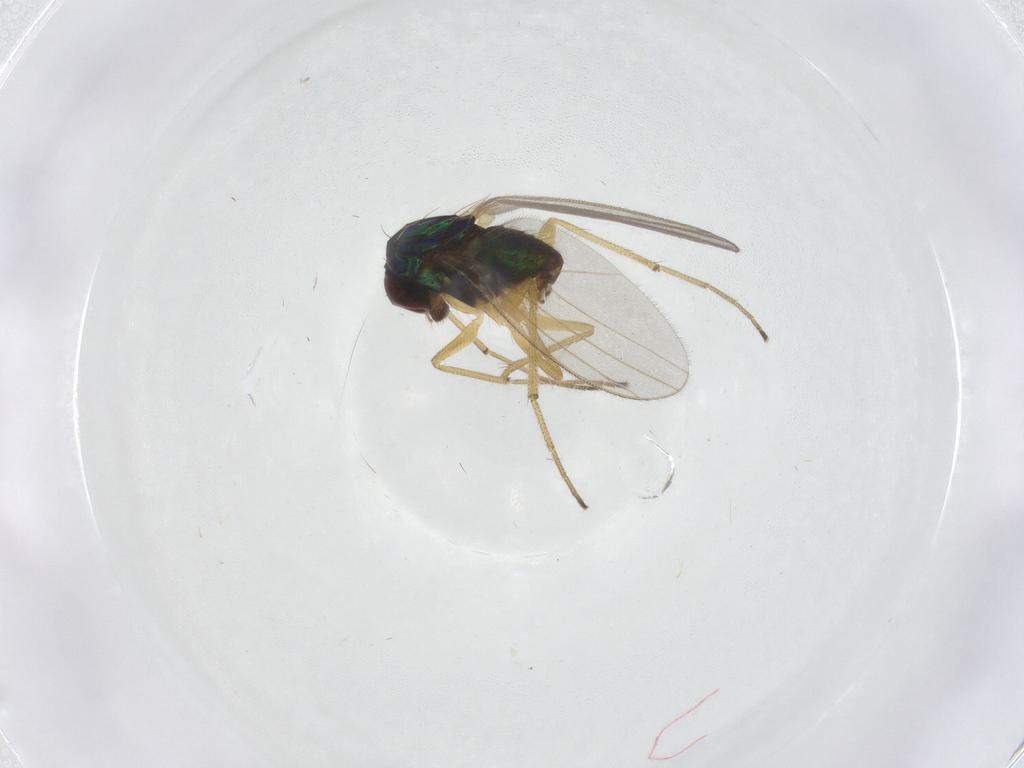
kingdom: Animalia
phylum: Arthropoda
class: Insecta
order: Diptera
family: Dolichopodidae
